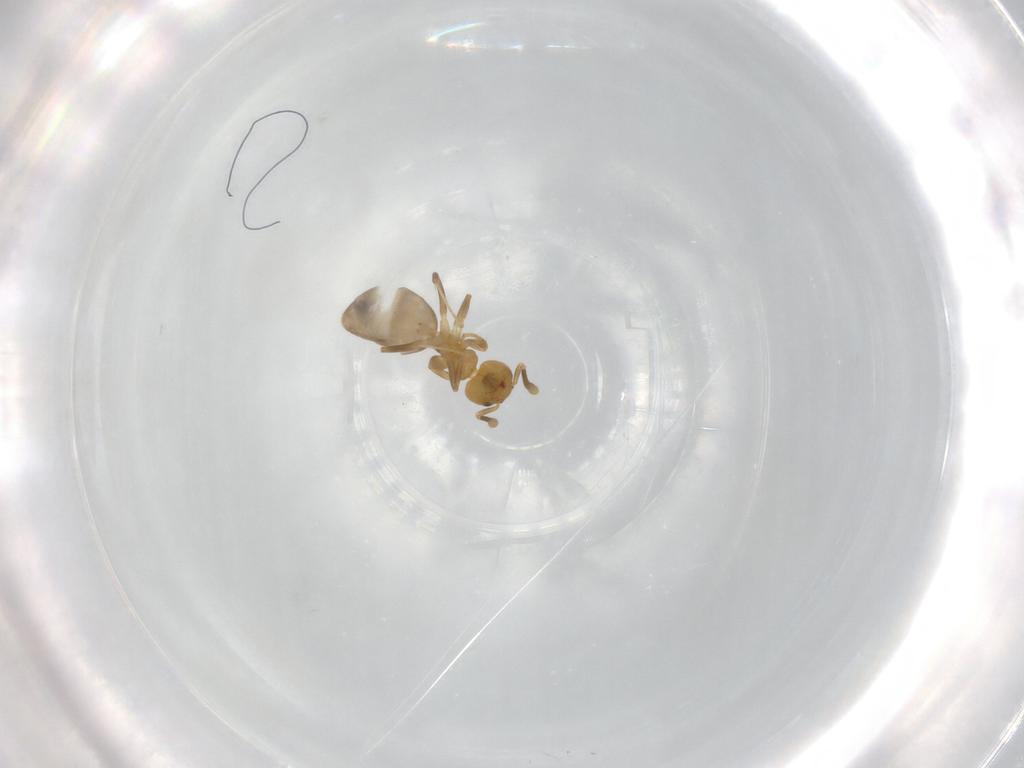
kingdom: Animalia
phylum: Arthropoda
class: Insecta
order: Hymenoptera
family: Formicidae
